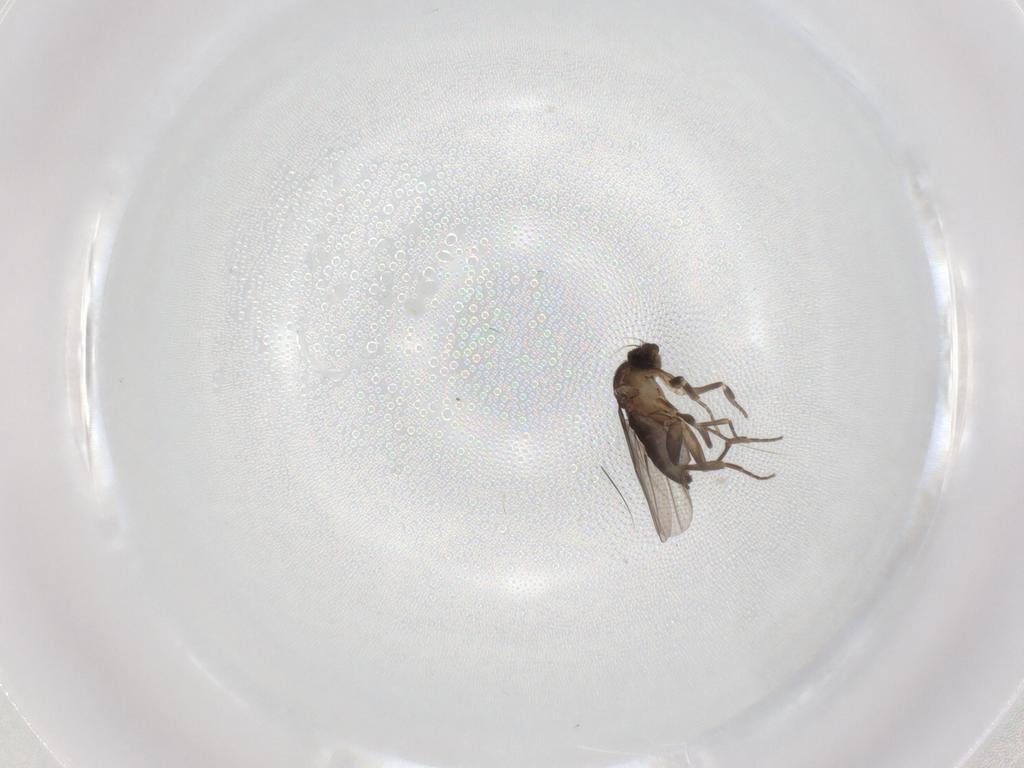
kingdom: Animalia
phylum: Arthropoda
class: Insecta
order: Diptera
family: Phoridae
